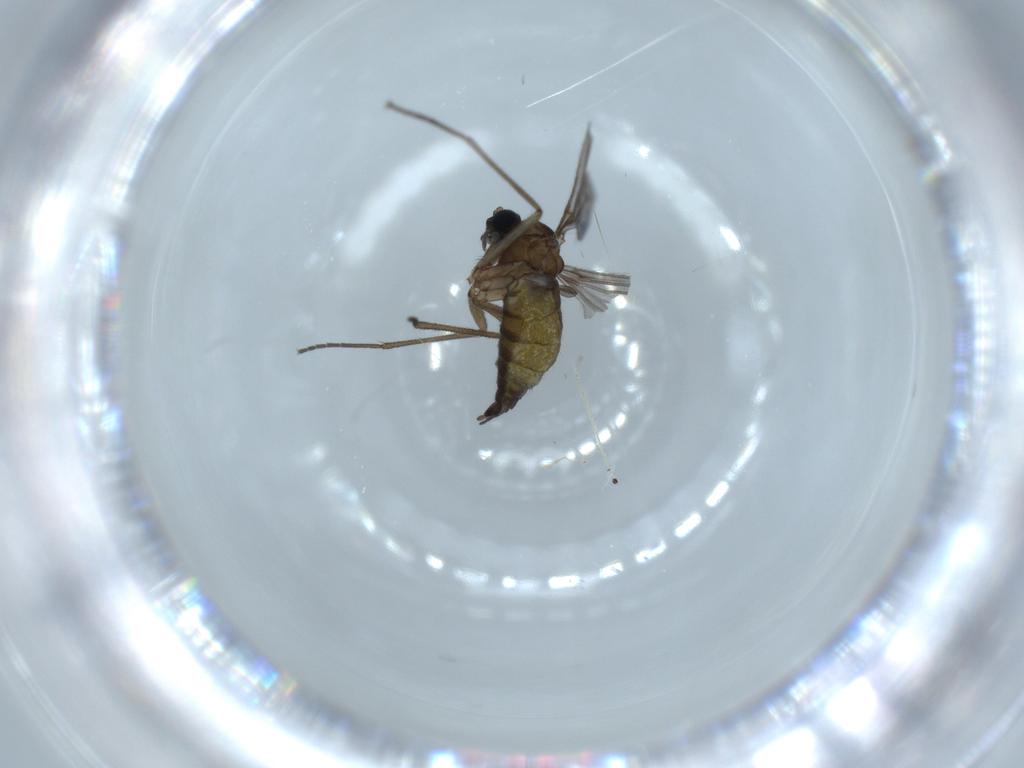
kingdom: Animalia
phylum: Arthropoda
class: Insecta
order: Diptera
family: Sciaridae
